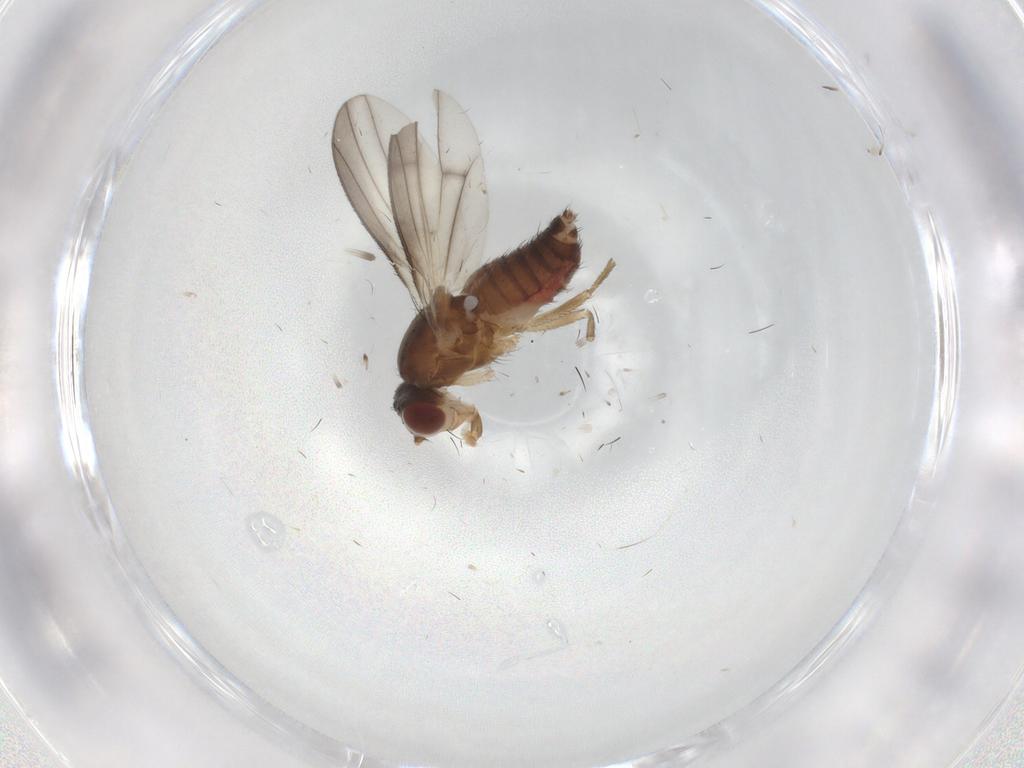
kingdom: Animalia
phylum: Arthropoda
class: Insecta
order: Diptera
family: Heleomyzidae
